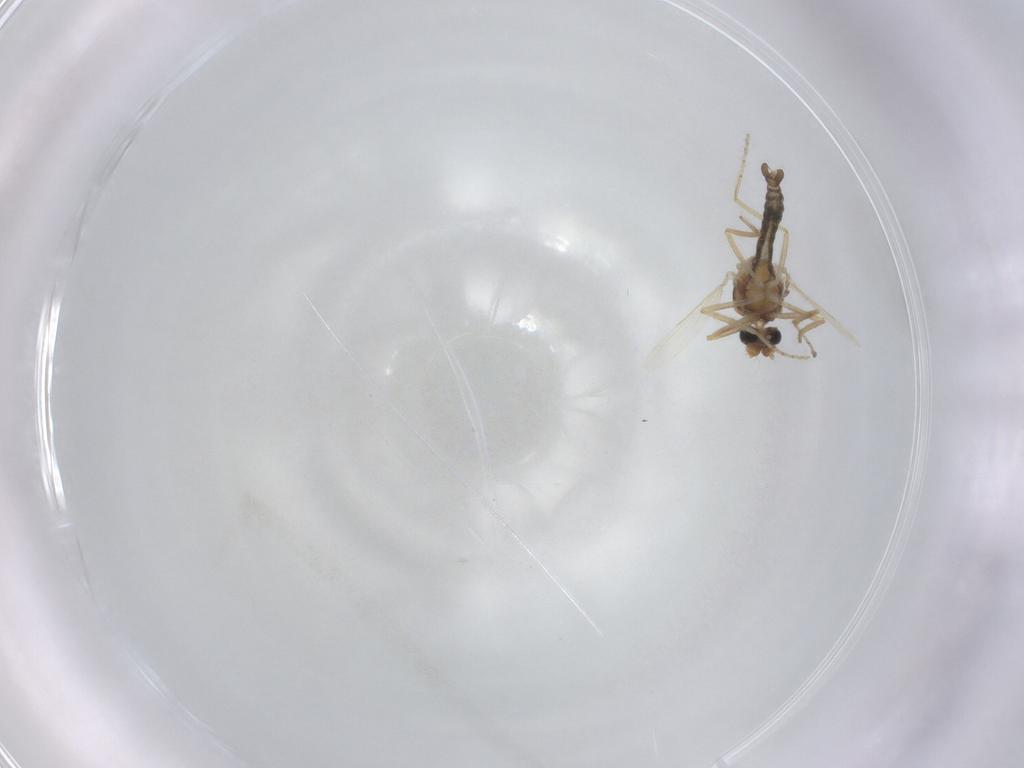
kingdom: Animalia
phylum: Arthropoda
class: Insecta
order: Diptera
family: Ceratopogonidae
